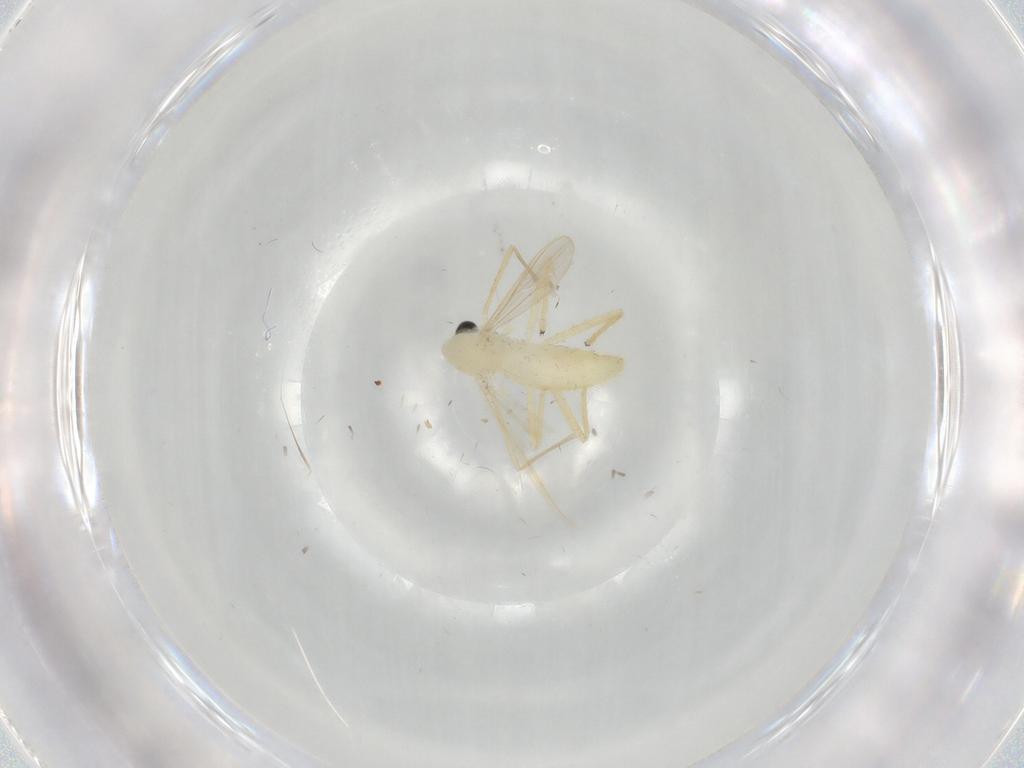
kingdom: Animalia
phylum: Arthropoda
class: Insecta
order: Diptera
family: Chironomidae
